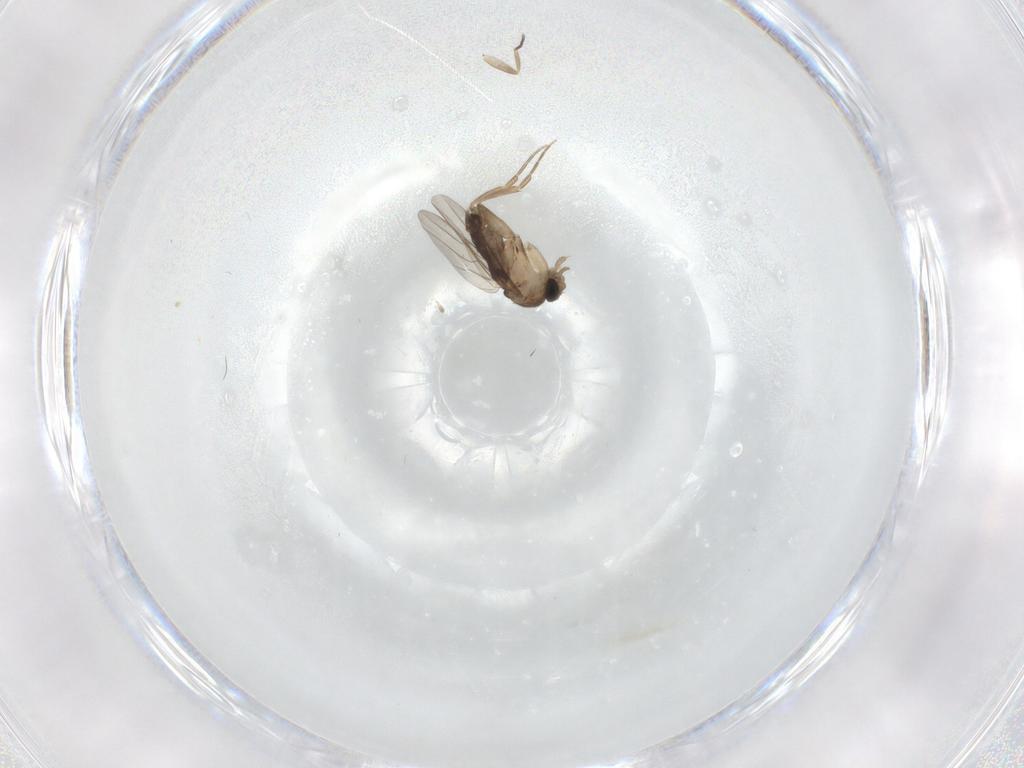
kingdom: Animalia
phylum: Arthropoda
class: Insecta
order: Diptera
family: Phoridae
